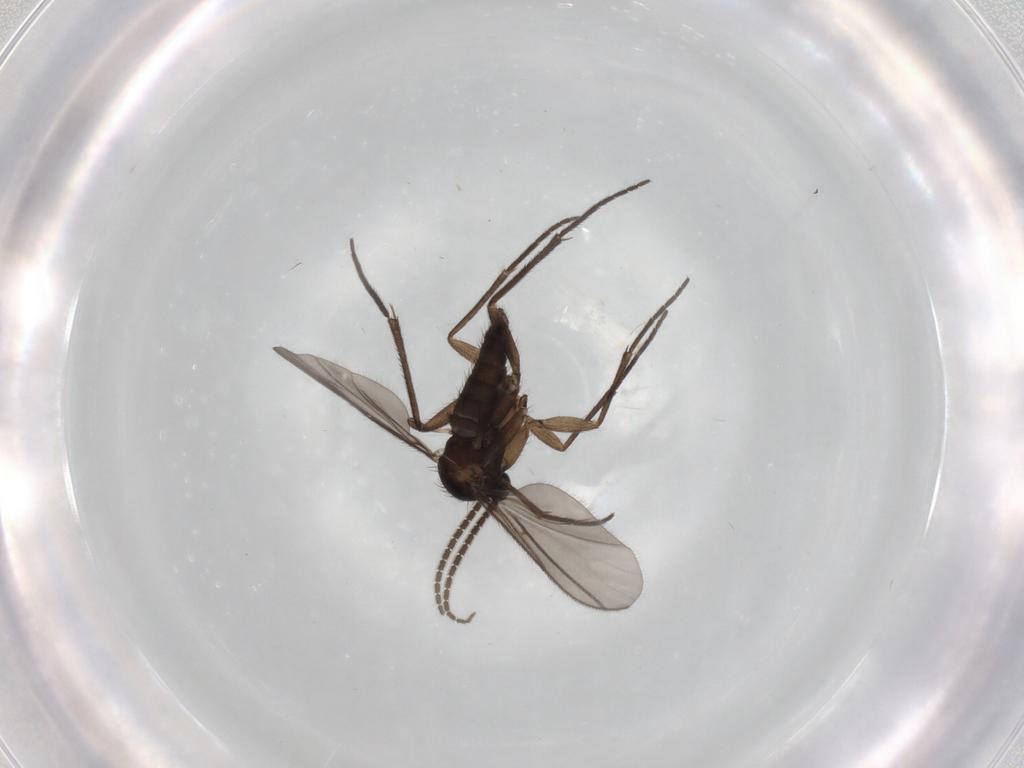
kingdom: Animalia
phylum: Arthropoda
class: Insecta
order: Diptera
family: Sciaridae
